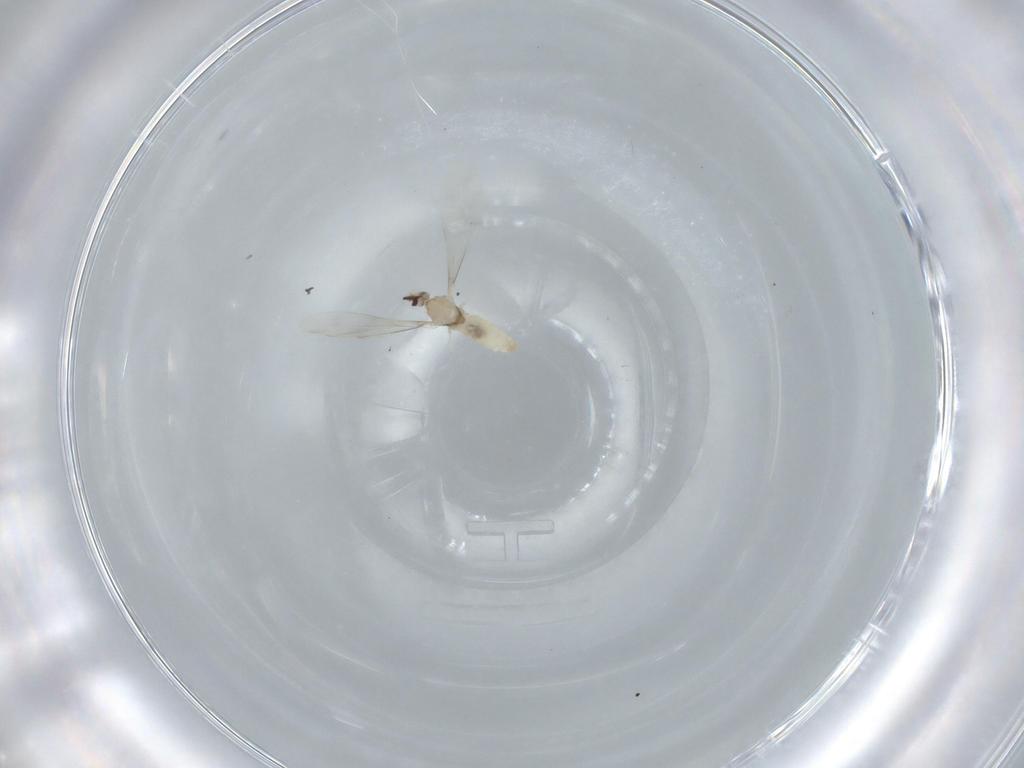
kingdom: Animalia
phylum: Arthropoda
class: Insecta
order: Diptera
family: Cecidomyiidae
